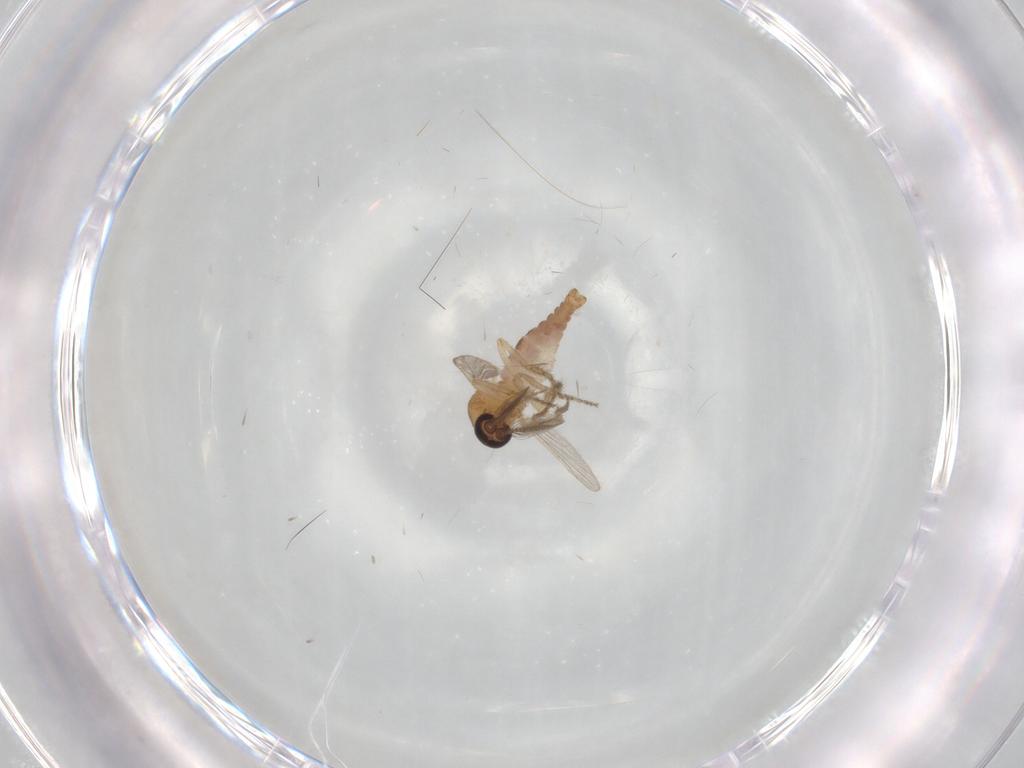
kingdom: Animalia
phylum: Arthropoda
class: Insecta
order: Diptera
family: Ceratopogonidae
